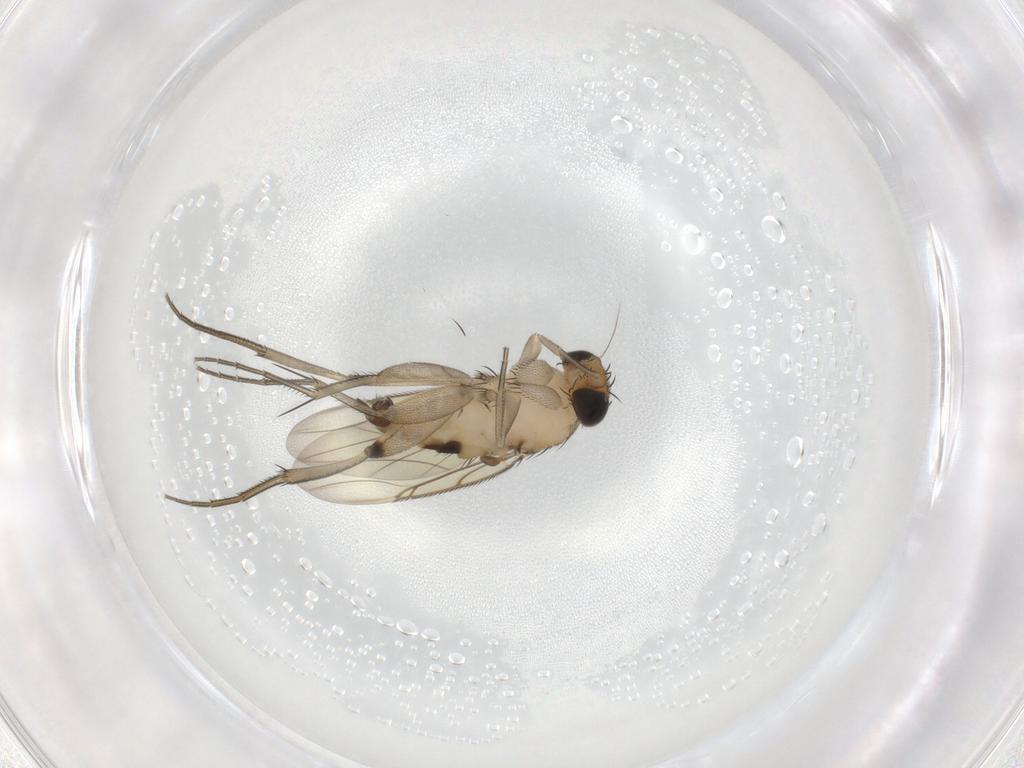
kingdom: Animalia
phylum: Arthropoda
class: Insecta
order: Diptera
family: Phoridae
